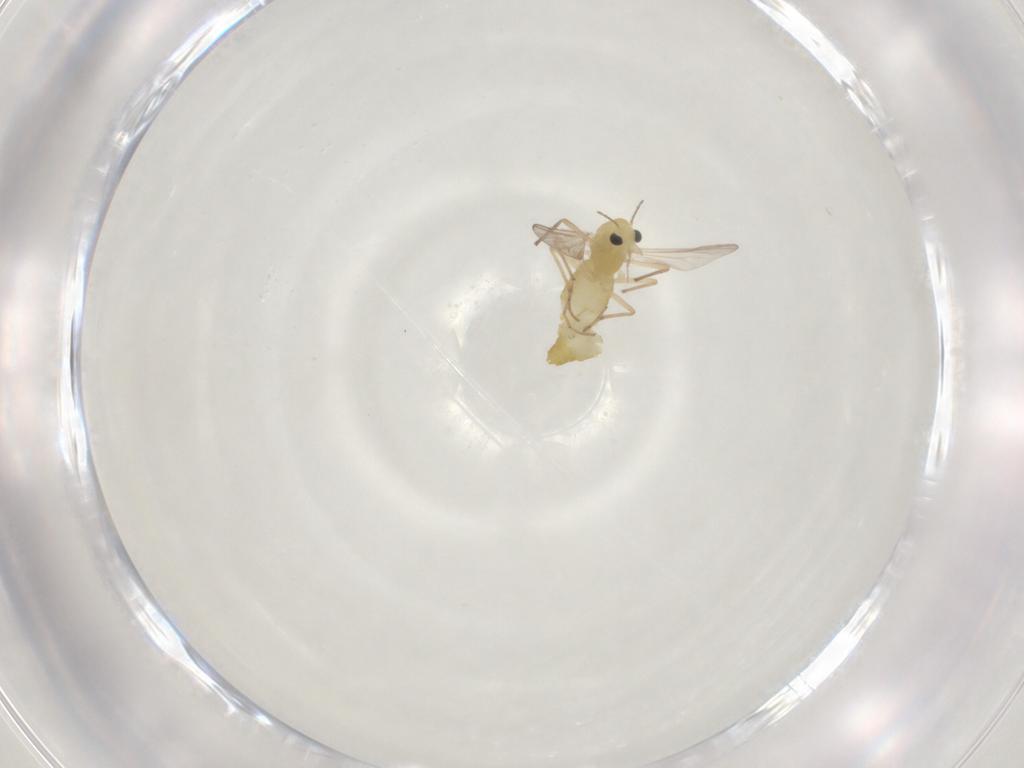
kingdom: Animalia
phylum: Arthropoda
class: Insecta
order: Diptera
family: Chironomidae
